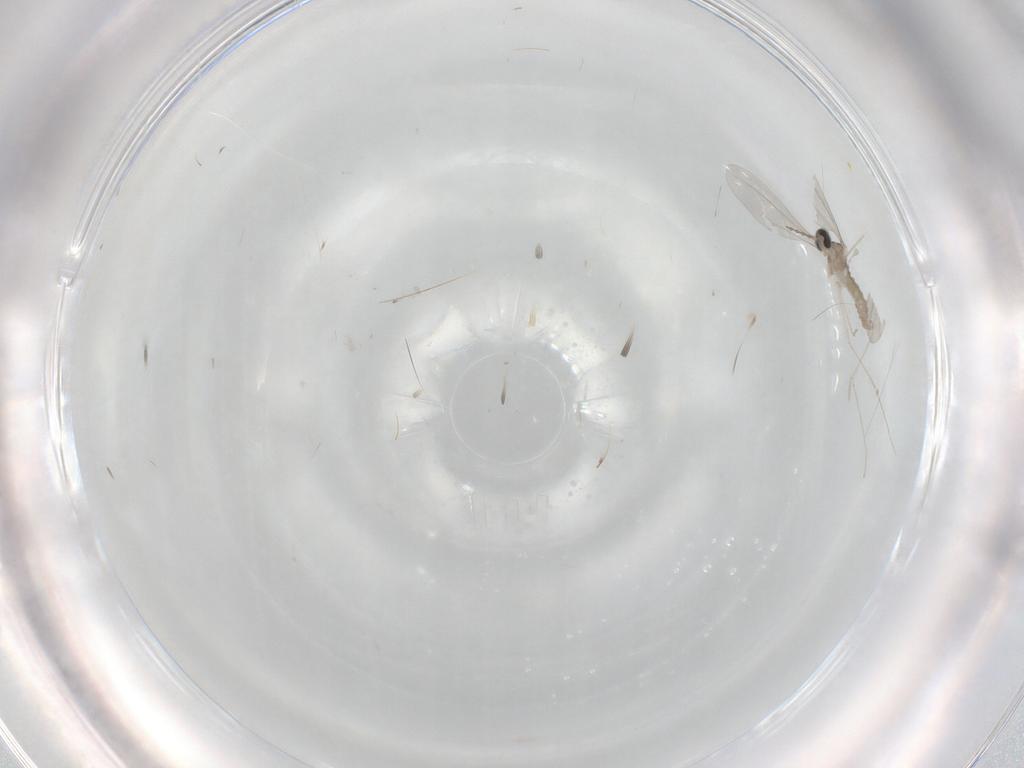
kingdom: Animalia
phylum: Arthropoda
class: Insecta
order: Diptera
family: Cecidomyiidae
